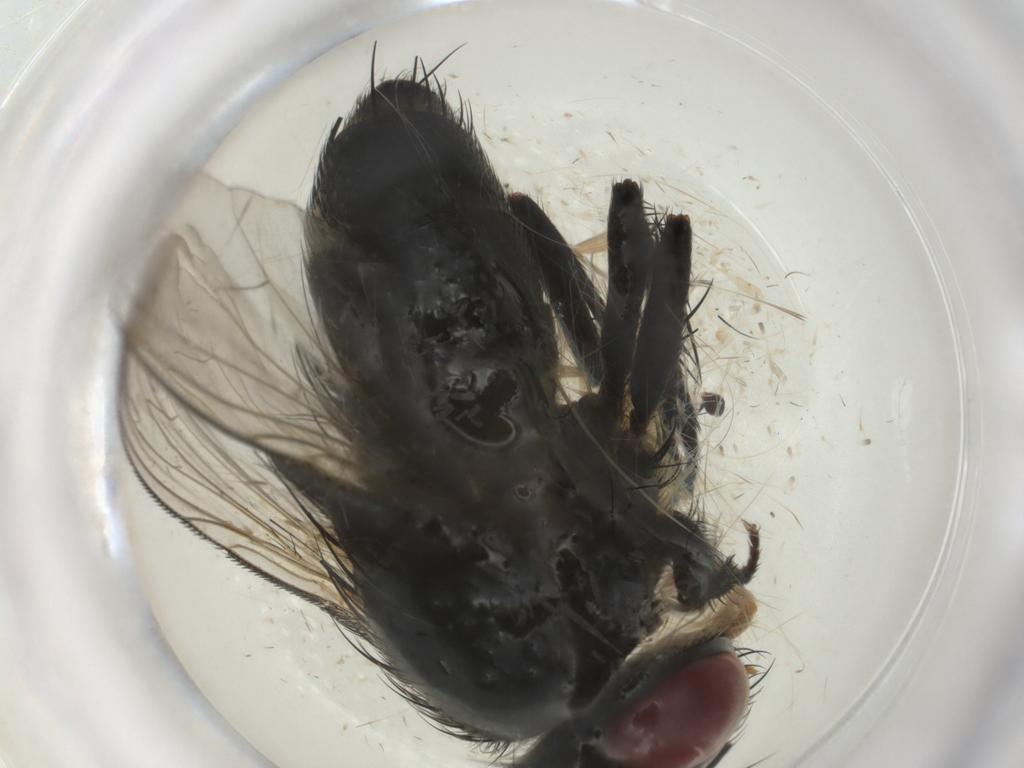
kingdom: Animalia
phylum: Arthropoda
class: Insecta
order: Diptera
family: Tachinidae
